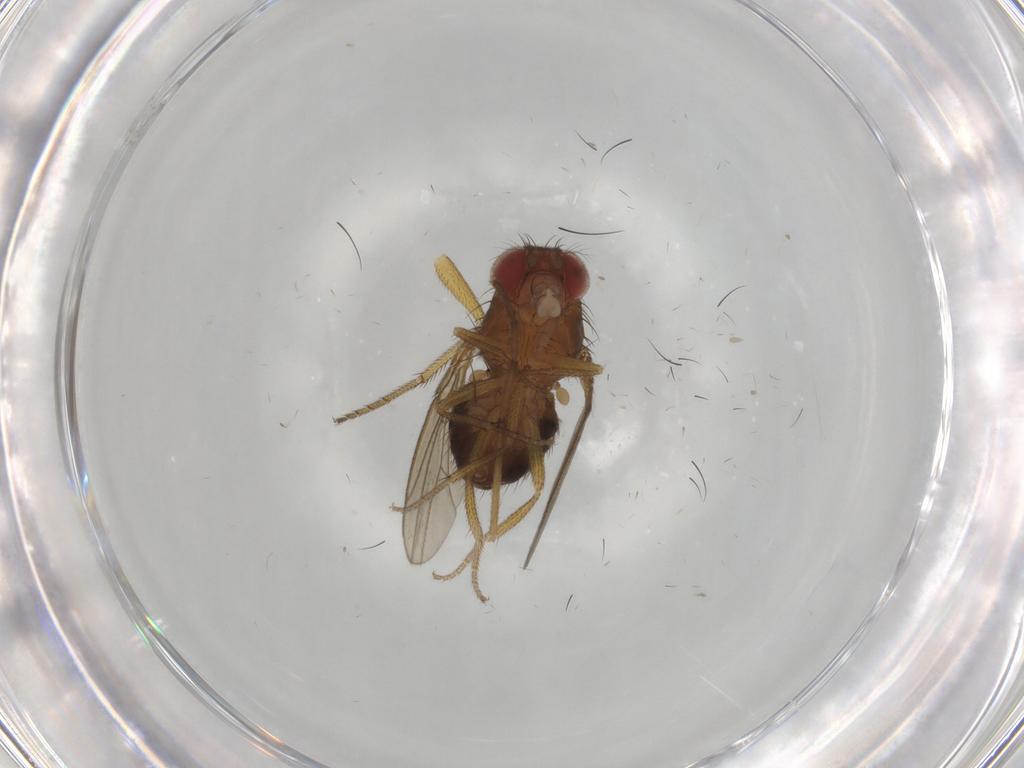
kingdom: Animalia
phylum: Arthropoda
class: Insecta
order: Diptera
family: Drosophilidae
